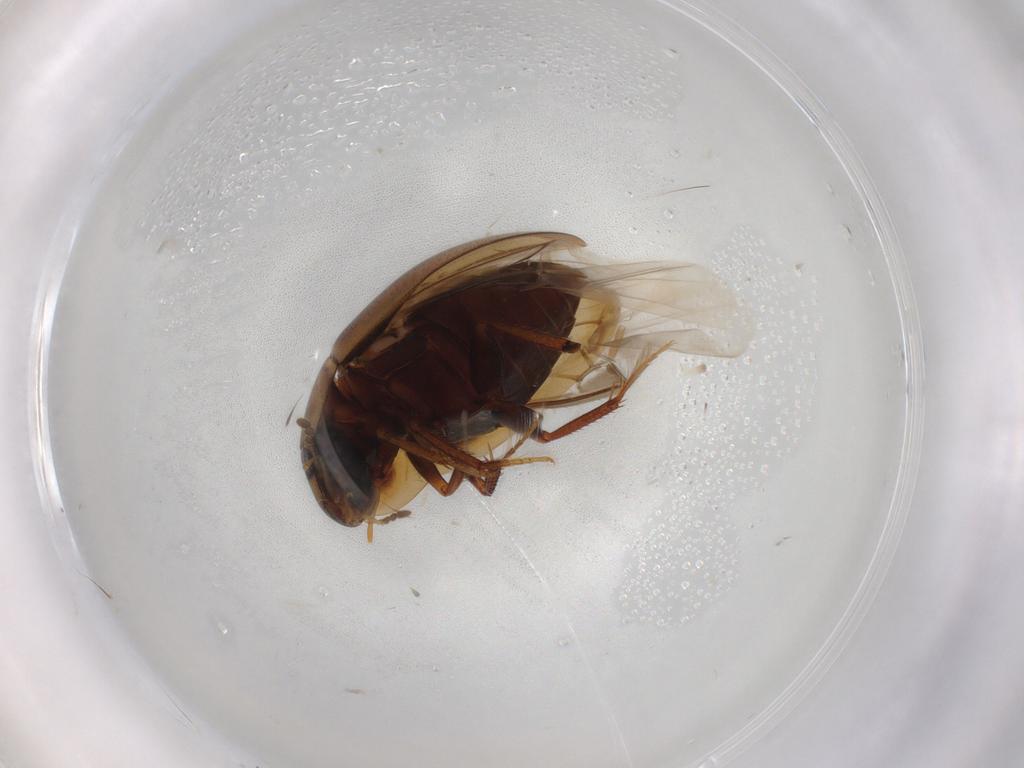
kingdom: Animalia
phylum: Arthropoda
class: Insecta
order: Coleoptera
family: Hydrophilidae
